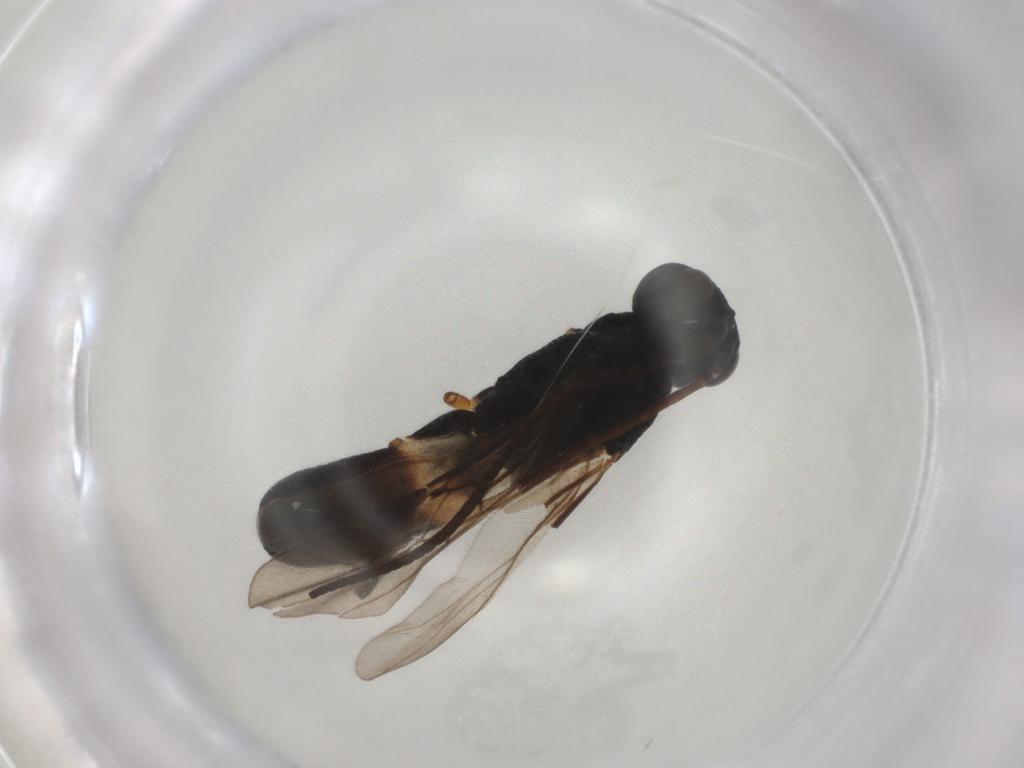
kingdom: Animalia
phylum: Arthropoda
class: Insecta
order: Hymenoptera
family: Braconidae
